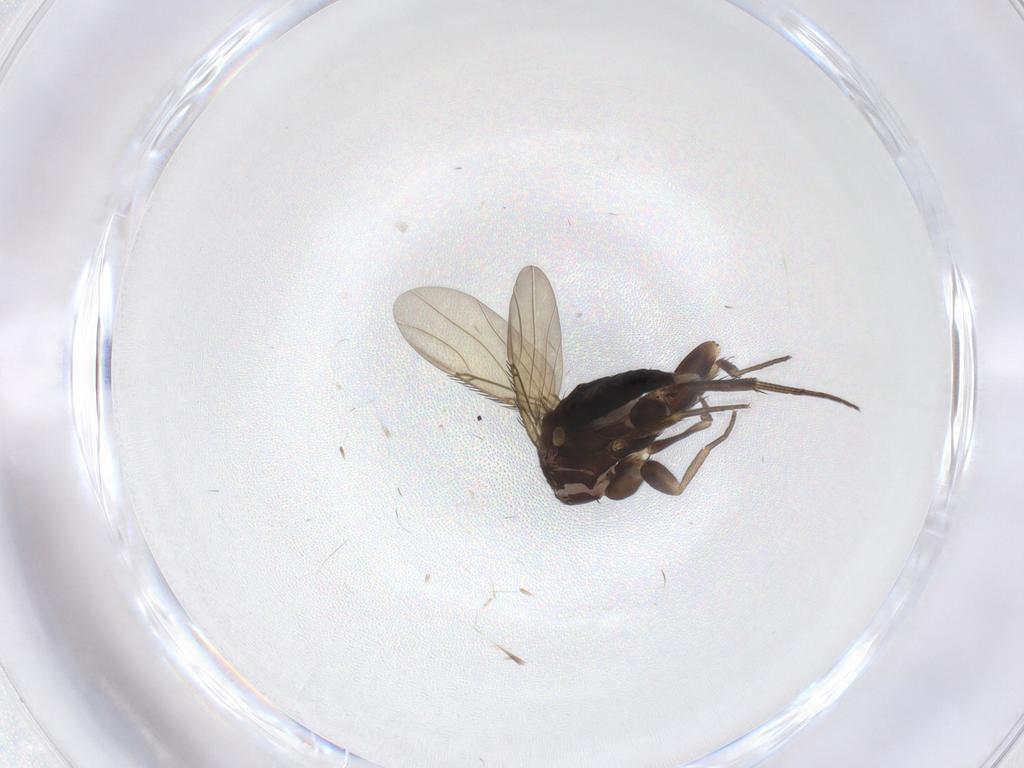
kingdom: Animalia
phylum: Arthropoda
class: Insecta
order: Diptera
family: Phoridae
